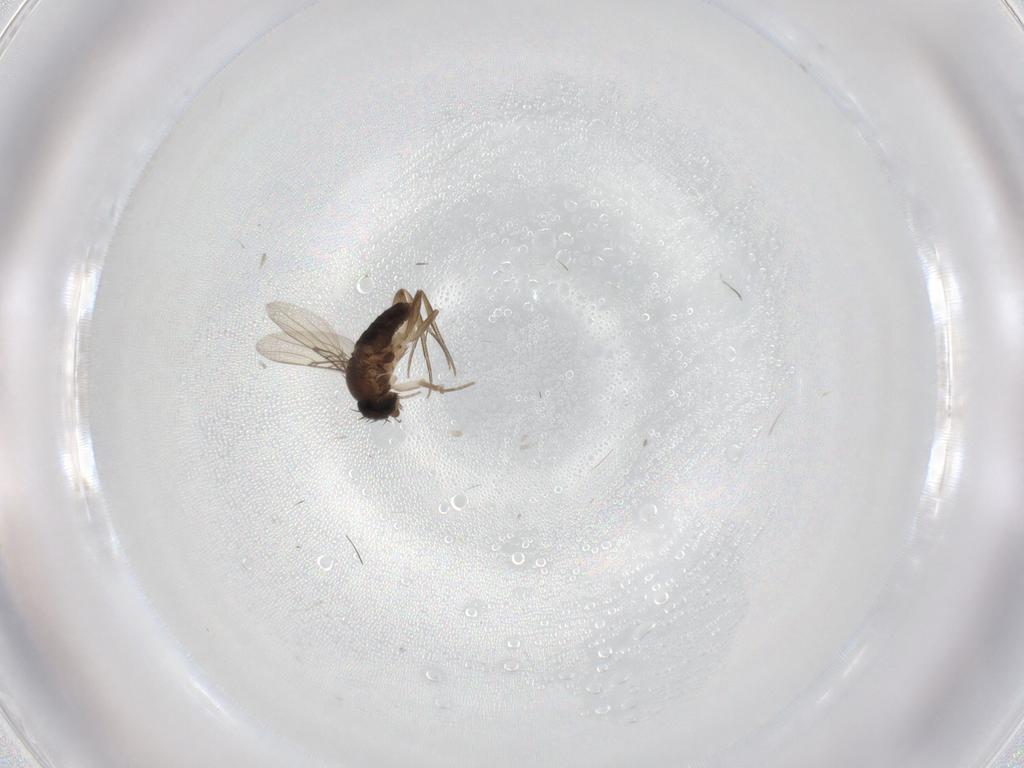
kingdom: Animalia
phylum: Arthropoda
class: Insecta
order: Diptera
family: Phoridae
